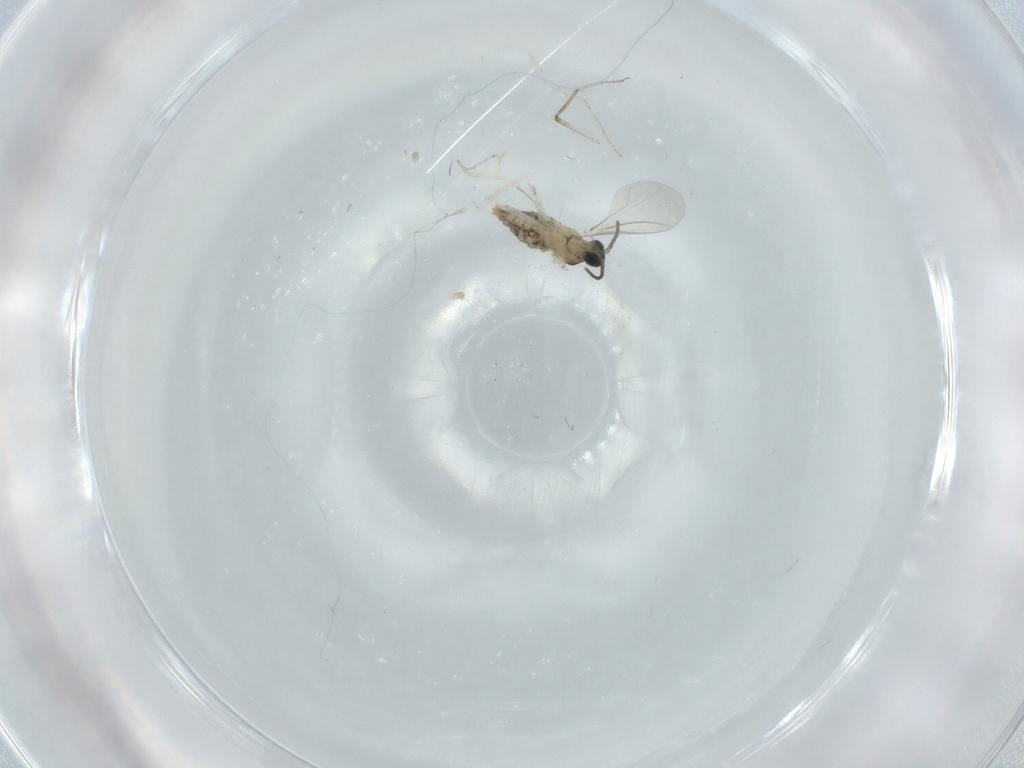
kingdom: Animalia
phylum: Arthropoda
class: Insecta
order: Diptera
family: Cecidomyiidae
